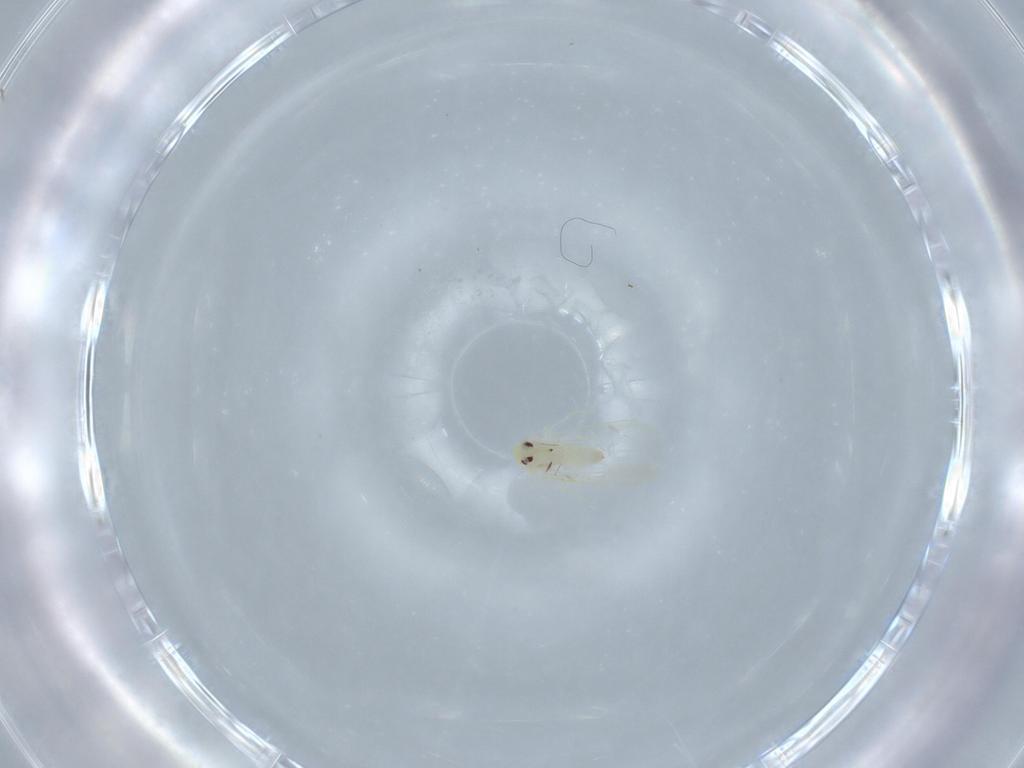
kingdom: Animalia
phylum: Arthropoda
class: Insecta
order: Hemiptera
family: Aleyrodidae
